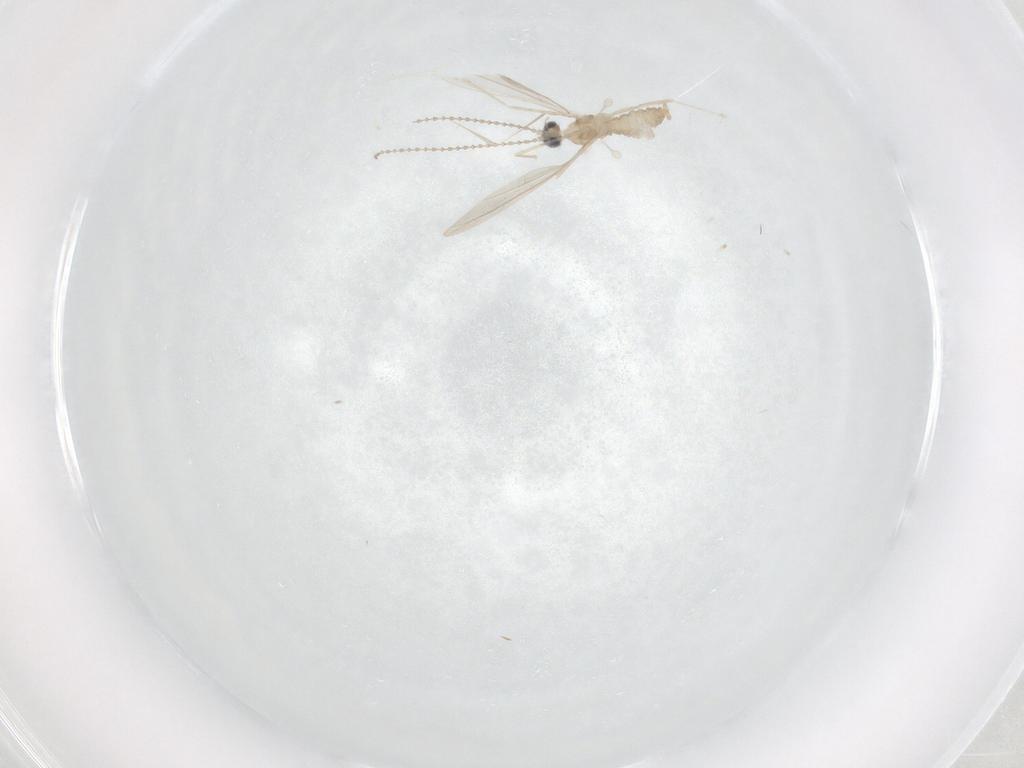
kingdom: Animalia
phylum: Arthropoda
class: Insecta
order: Diptera
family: Cecidomyiidae
